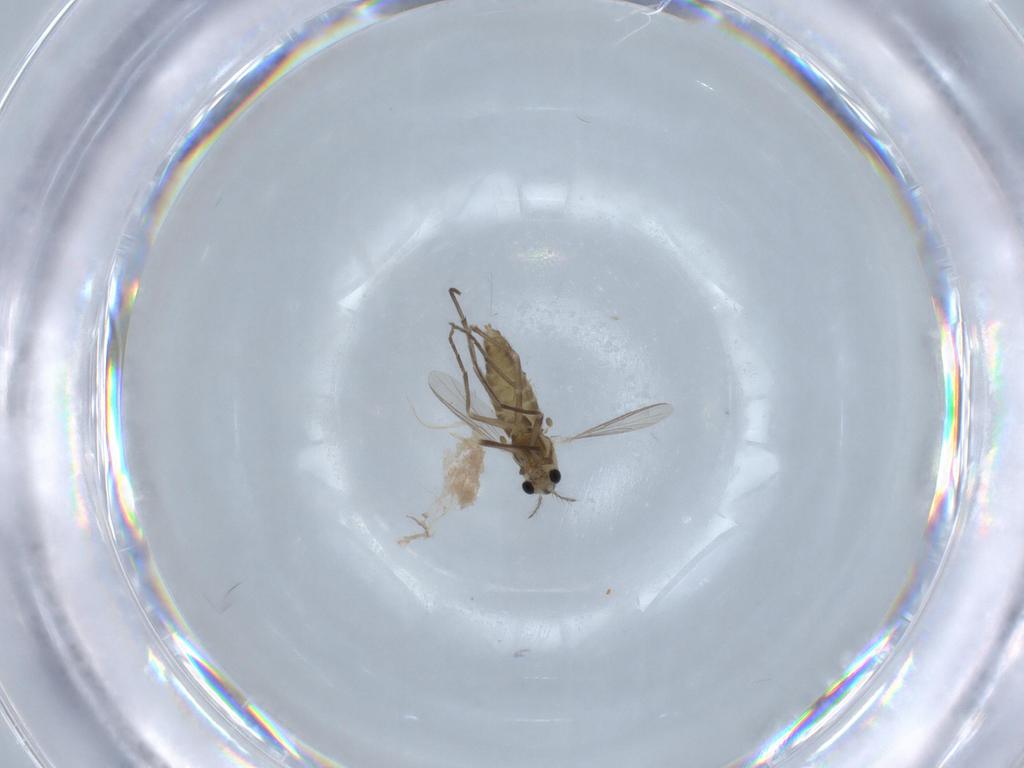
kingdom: Animalia
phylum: Arthropoda
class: Insecta
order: Diptera
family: Chironomidae
